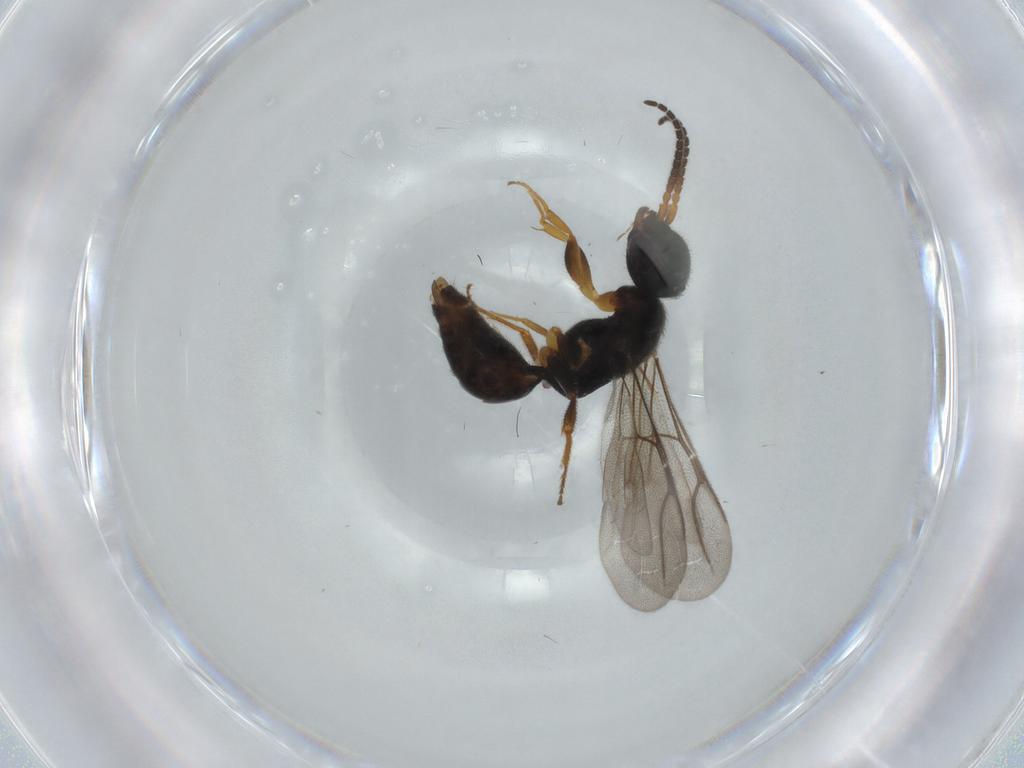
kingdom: Animalia
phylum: Arthropoda
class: Insecta
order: Hymenoptera
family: Bethylidae
